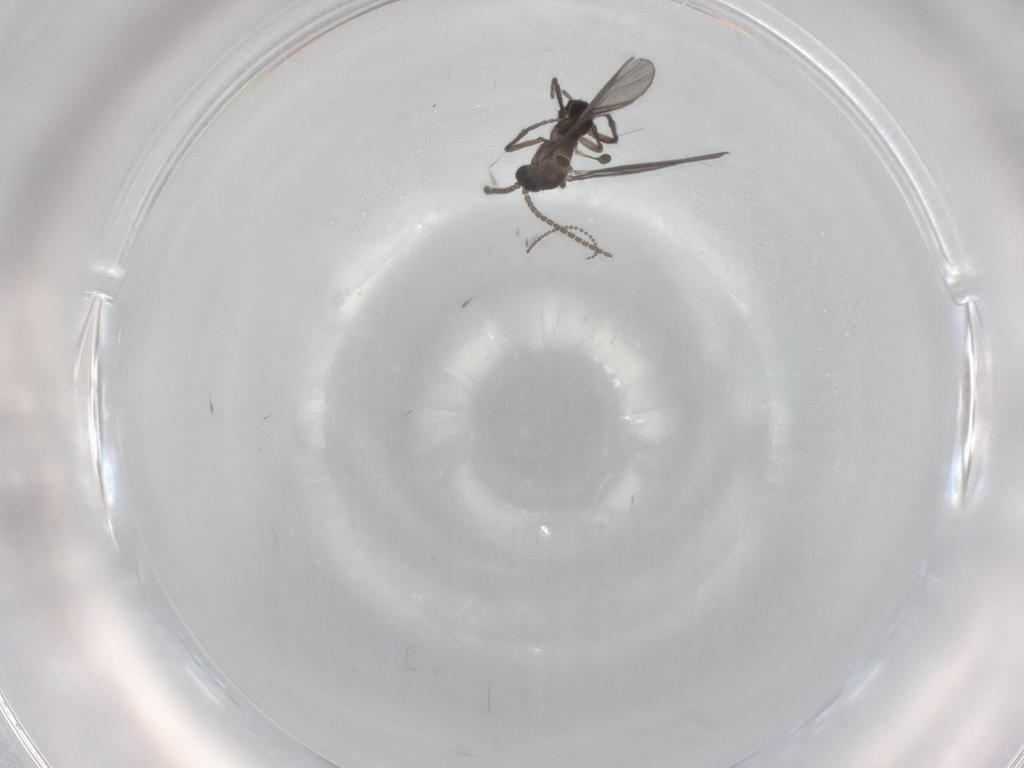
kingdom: Animalia
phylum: Arthropoda
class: Insecta
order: Diptera
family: Sciaridae
